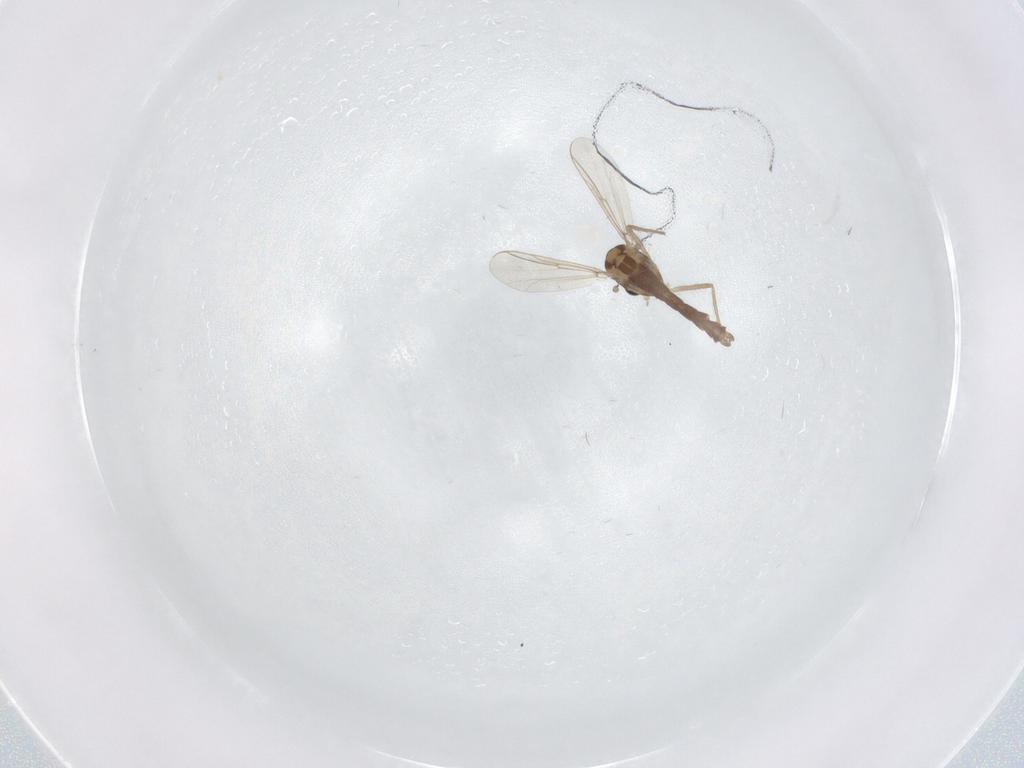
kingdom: Animalia
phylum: Arthropoda
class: Insecta
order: Diptera
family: Chironomidae
